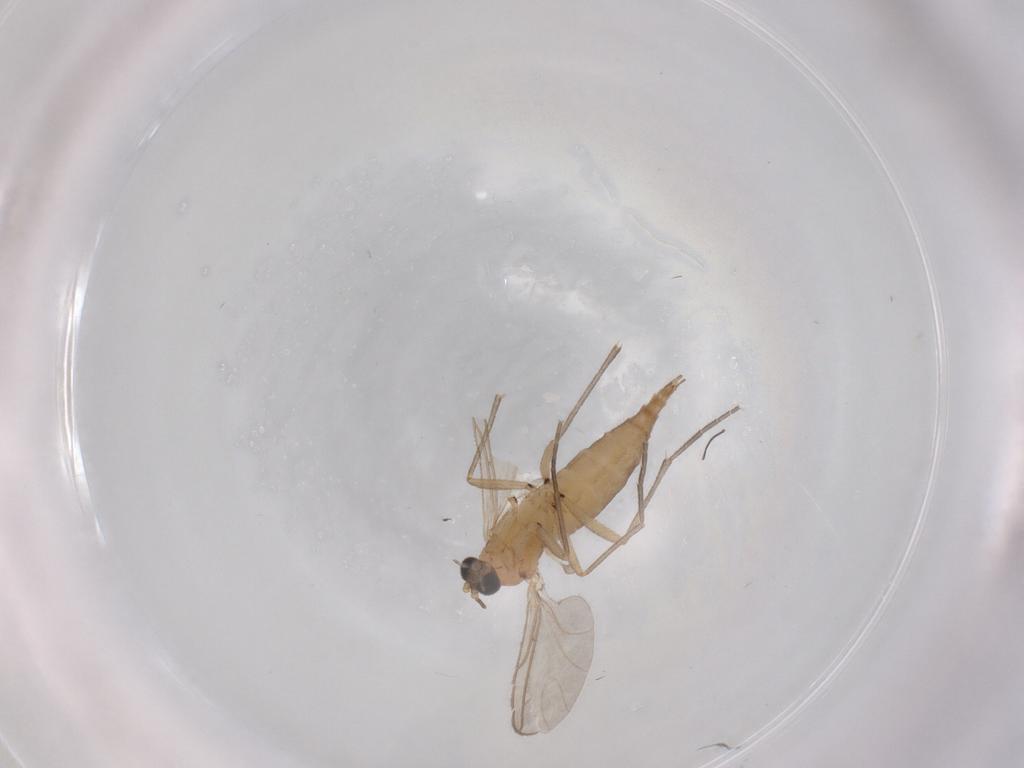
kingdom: Animalia
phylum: Arthropoda
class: Insecta
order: Diptera
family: Sciaridae
